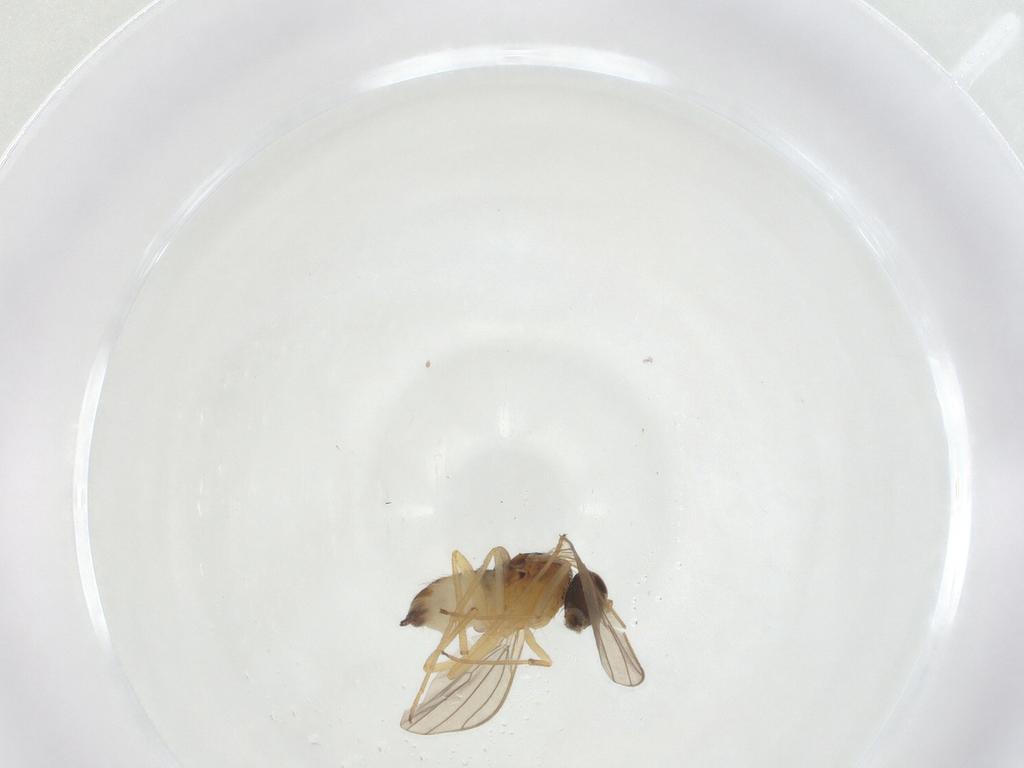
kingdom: Animalia
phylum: Arthropoda
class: Insecta
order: Diptera
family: Dolichopodidae
